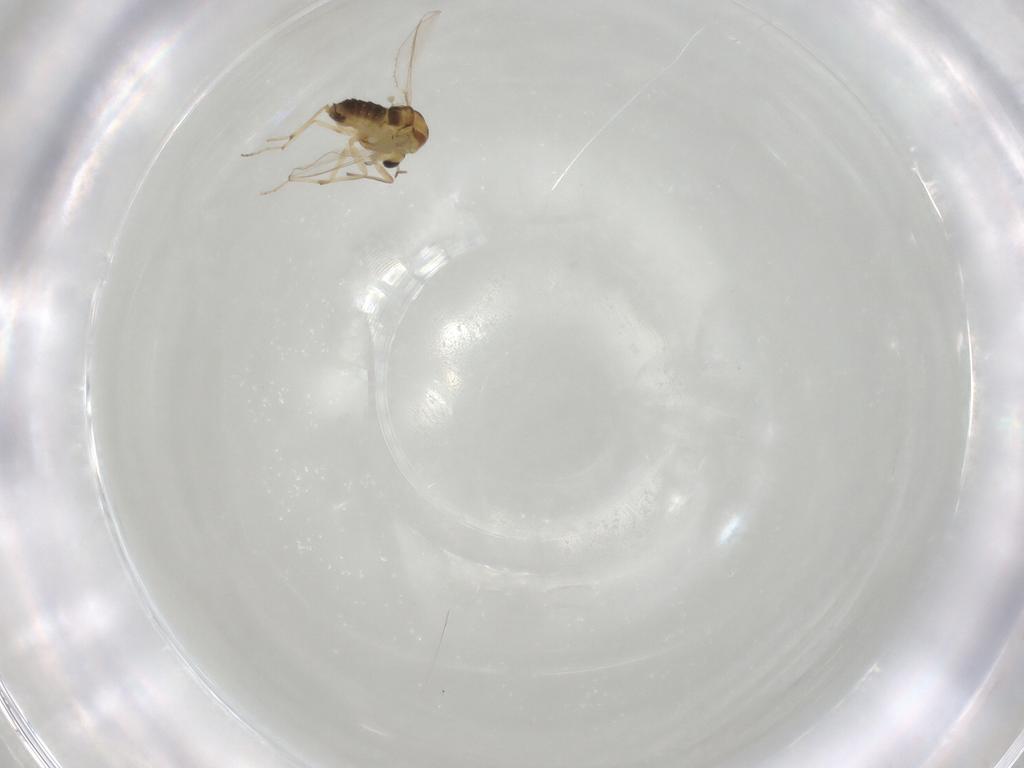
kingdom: Animalia
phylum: Arthropoda
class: Insecta
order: Diptera
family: Chironomidae
